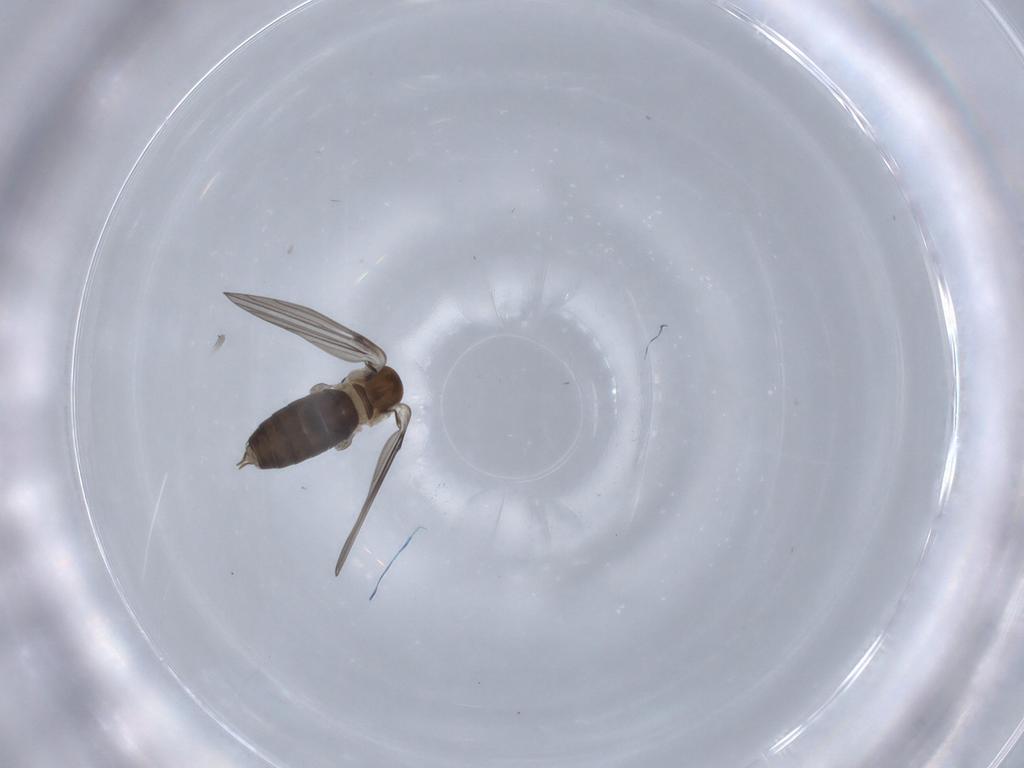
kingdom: Animalia
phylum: Arthropoda
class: Insecta
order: Diptera
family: Psychodidae
